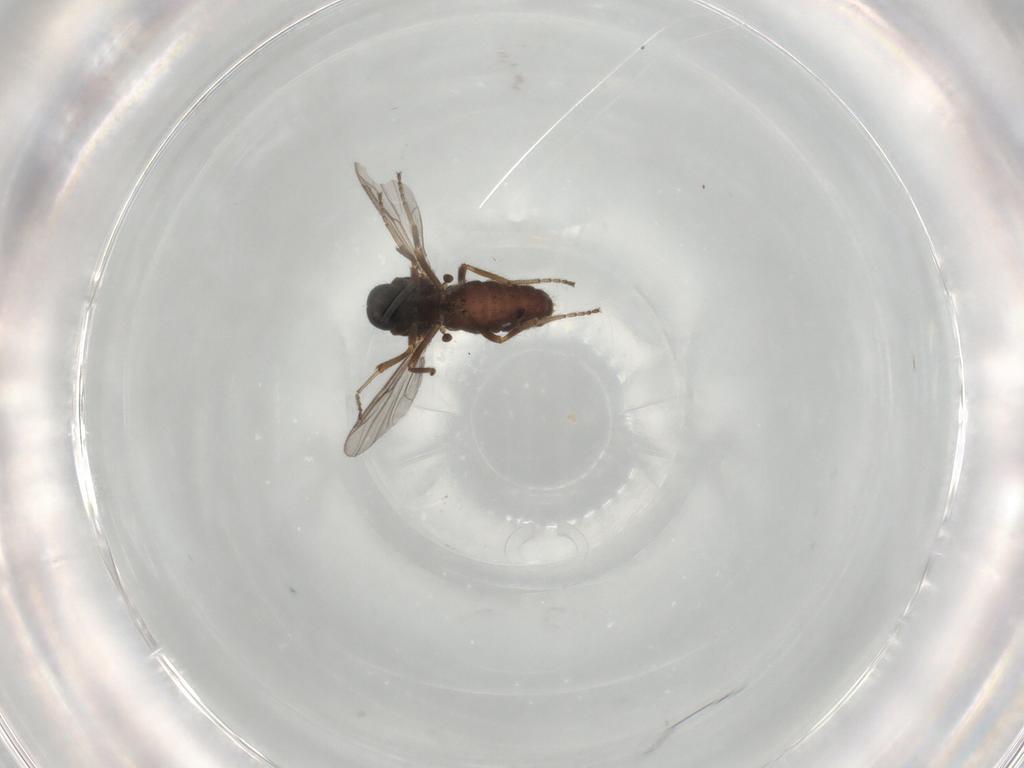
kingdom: Animalia
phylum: Arthropoda
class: Insecta
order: Diptera
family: Ceratopogonidae
